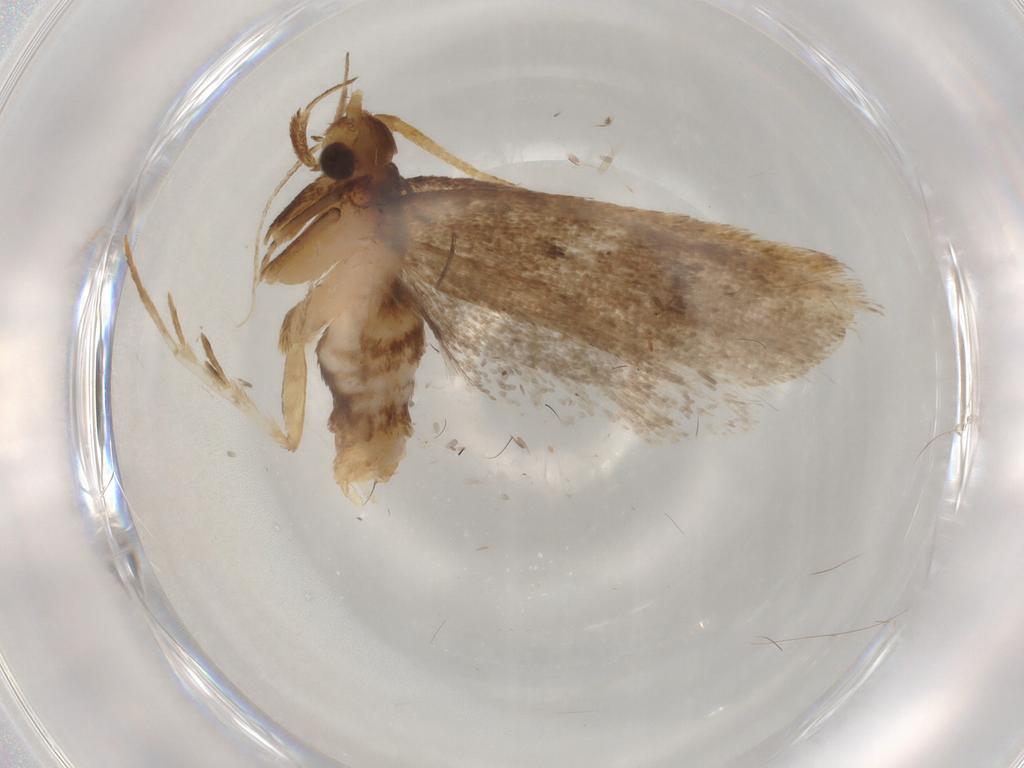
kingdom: Animalia
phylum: Arthropoda
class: Insecta
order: Lepidoptera
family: Lecithoceridae
